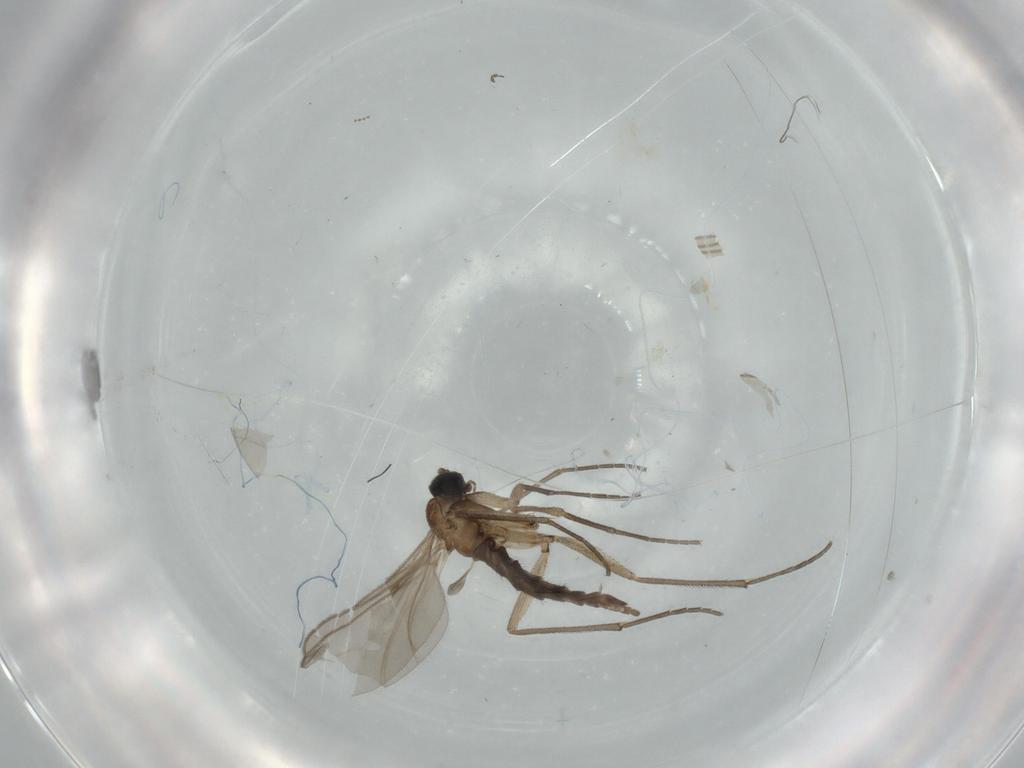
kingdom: Animalia
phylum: Arthropoda
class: Insecta
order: Diptera
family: Sciaridae
